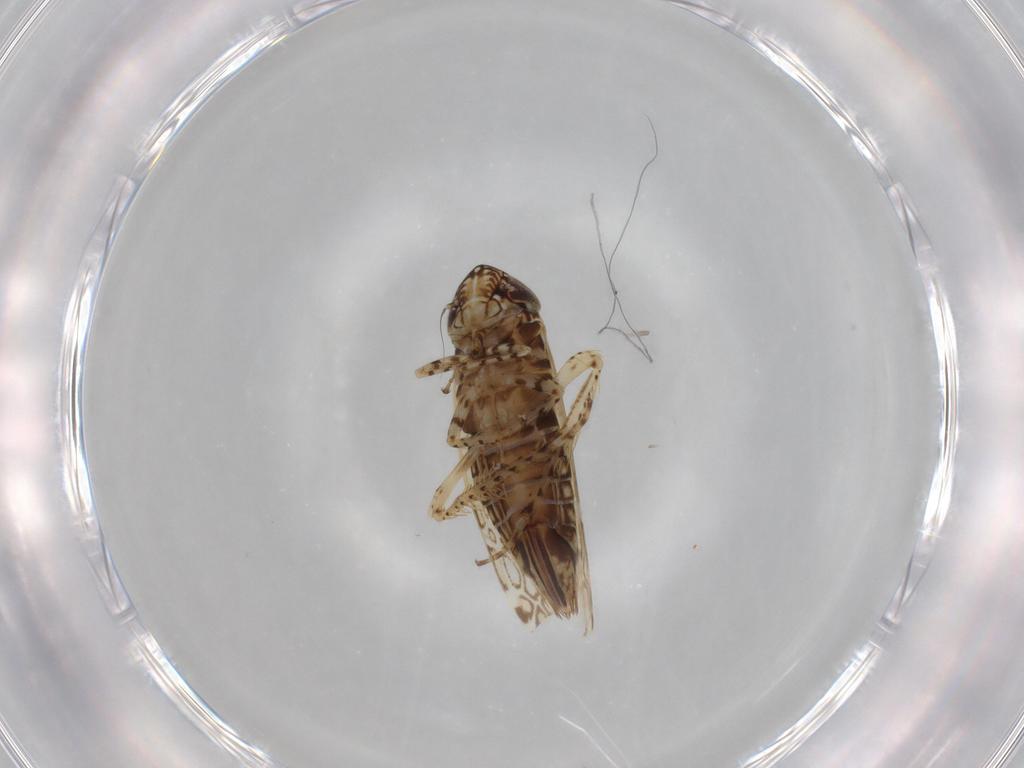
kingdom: Animalia
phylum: Arthropoda
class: Insecta
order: Hemiptera
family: Cicadellidae
